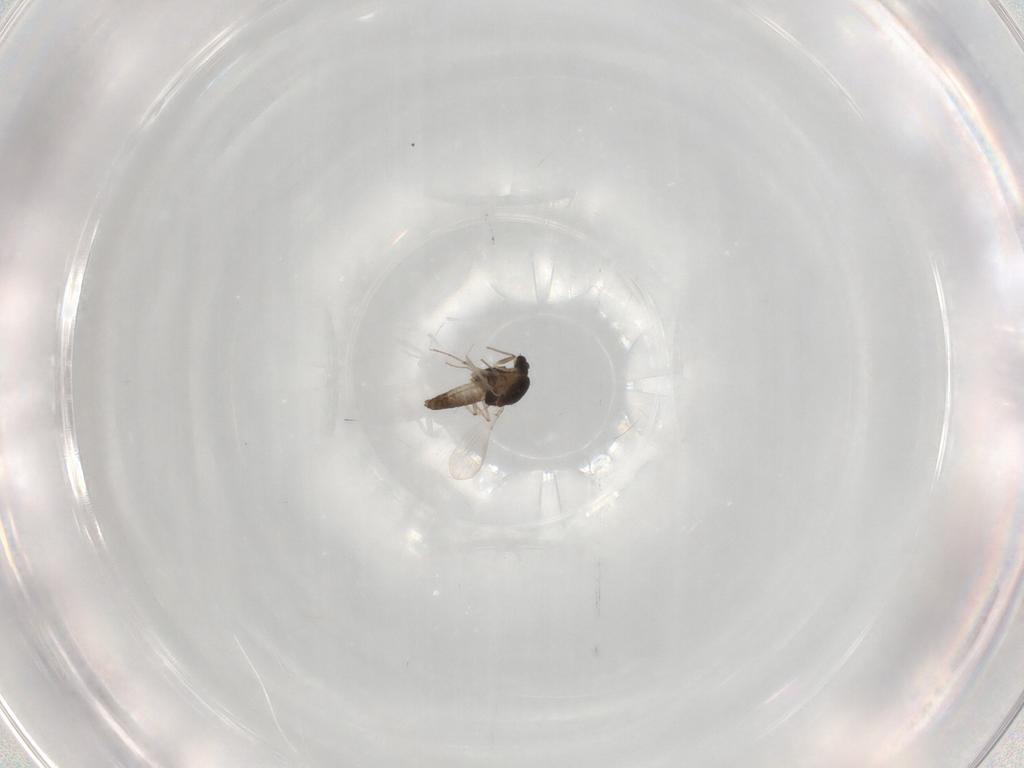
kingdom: Animalia
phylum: Arthropoda
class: Insecta
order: Diptera
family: Chironomidae
